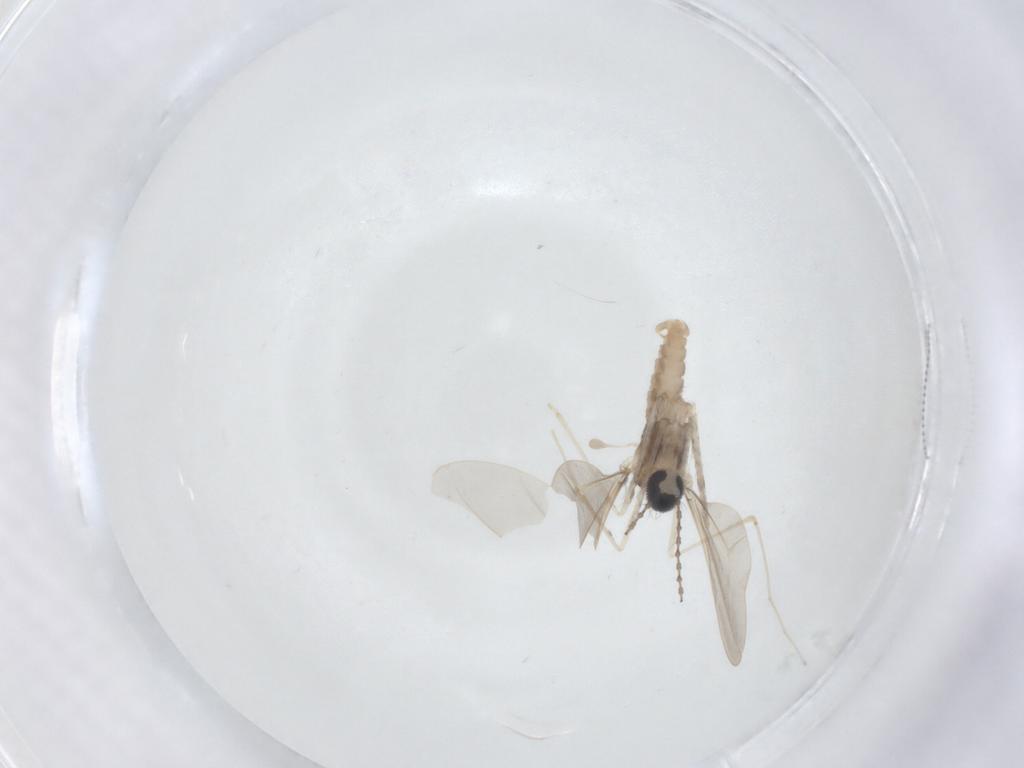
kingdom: Animalia
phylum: Arthropoda
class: Insecta
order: Diptera
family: Cecidomyiidae
